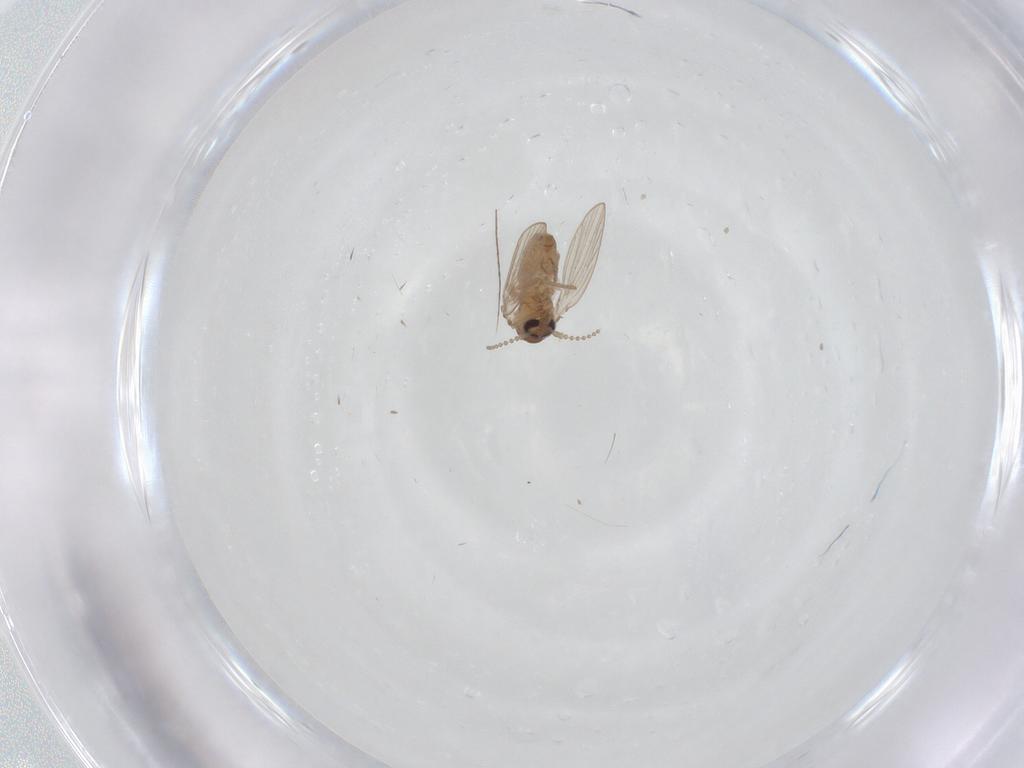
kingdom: Animalia
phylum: Arthropoda
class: Insecta
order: Diptera
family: Psychodidae
